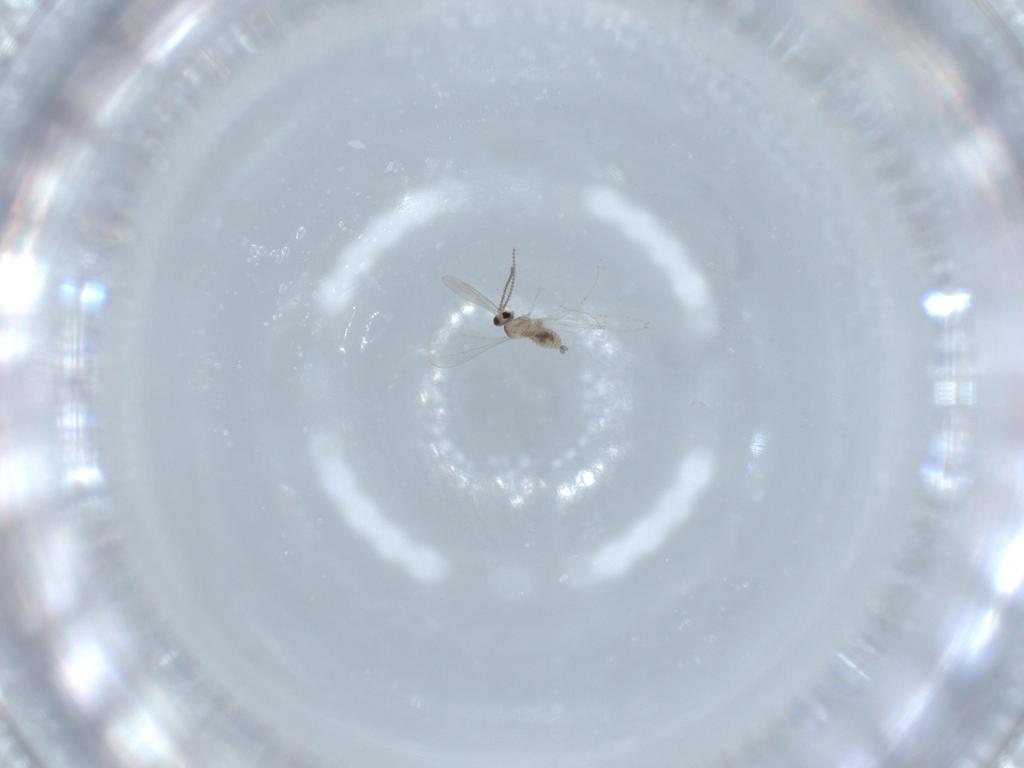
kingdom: Animalia
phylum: Arthropoda
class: Insecta
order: Diptera
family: Cecidomyiidae
